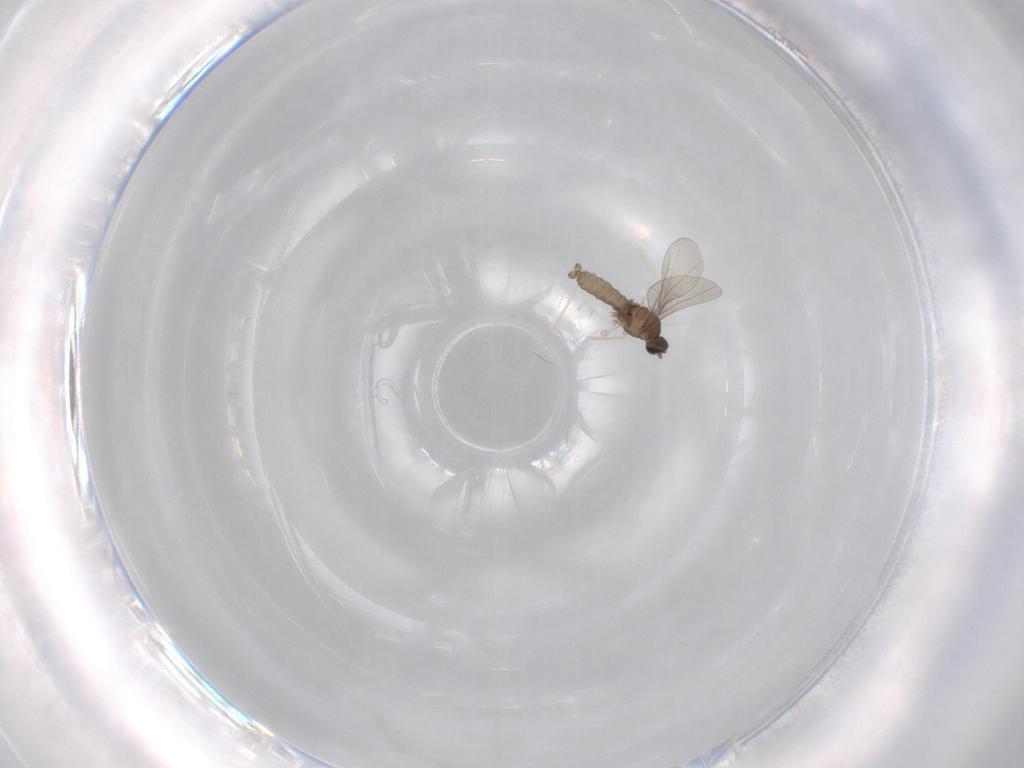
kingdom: Animalia
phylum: Arthropoda
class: Insecta
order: Diptera
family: Cecidomyiidae
